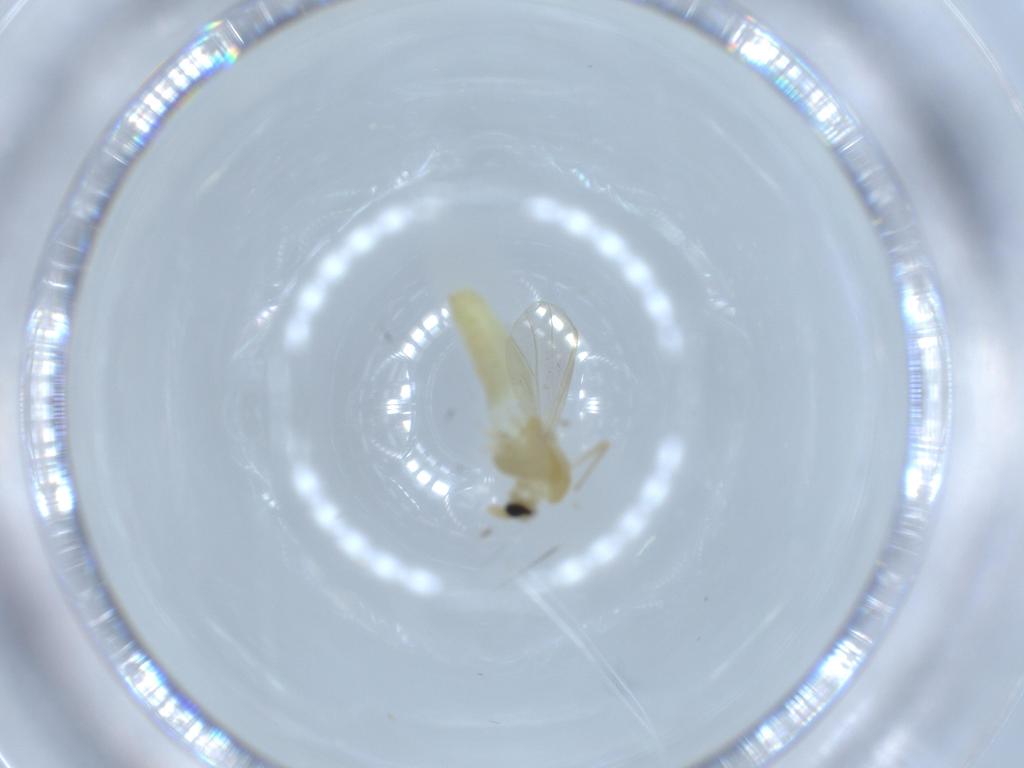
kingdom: Animalia
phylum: Arthropoda
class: Insecta
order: Diptera
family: Chironomidae
